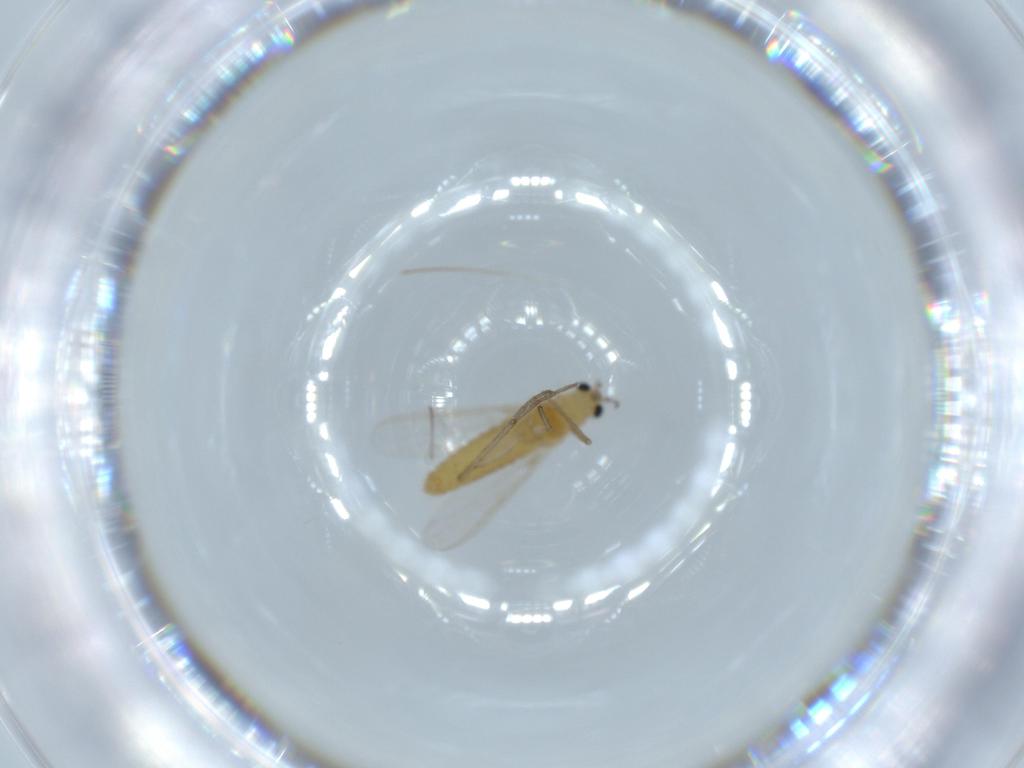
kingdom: Animalia
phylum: Arthropoda
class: Insecta
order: Diptera
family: Chironomidae
